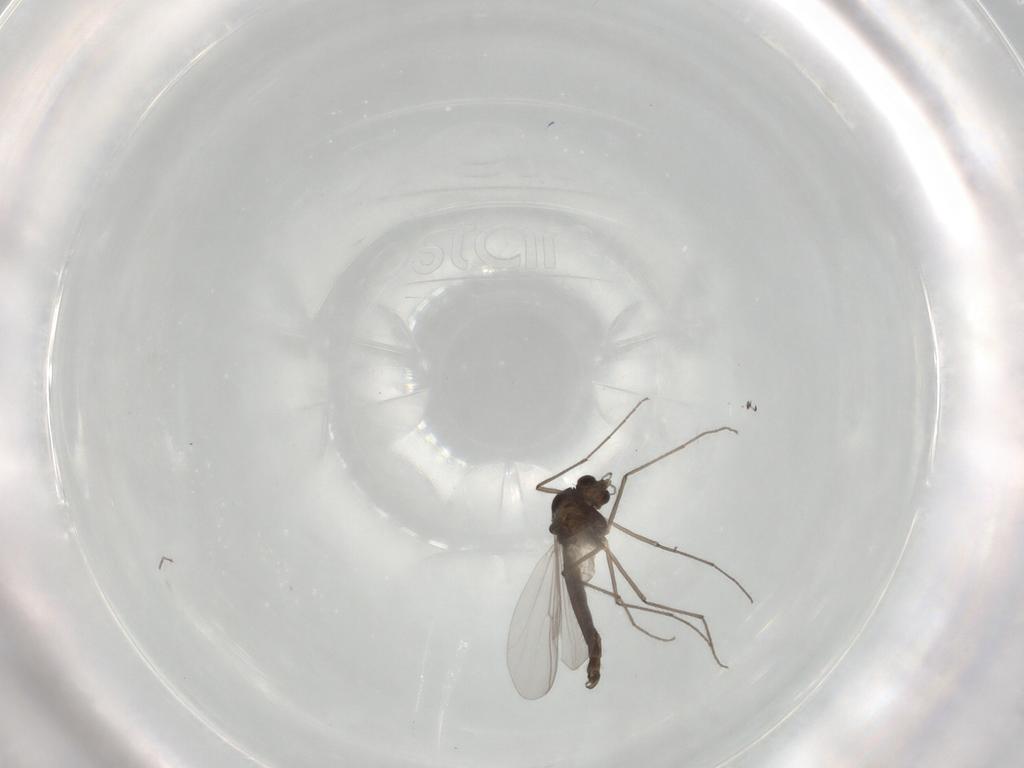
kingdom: Animalia
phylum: Arthropoda
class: Insecta
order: Diptera
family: Chironomidae
